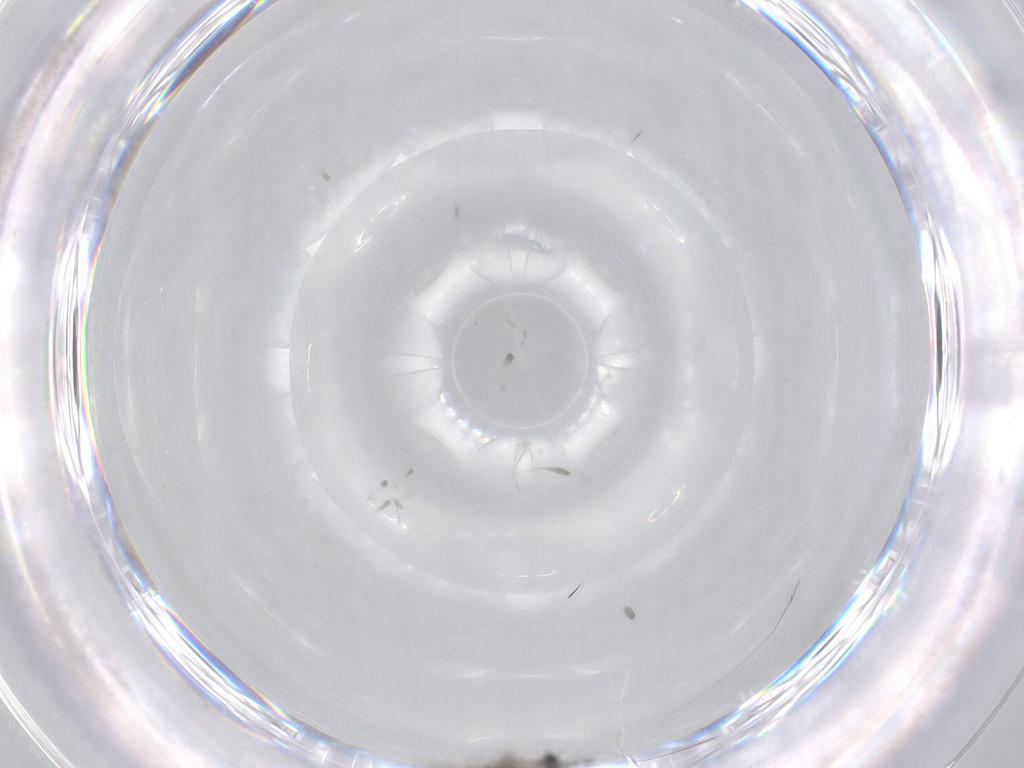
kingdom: Animalia
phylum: Arthropoda
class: Insecta
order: Diptera
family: Cecidomyiidae
